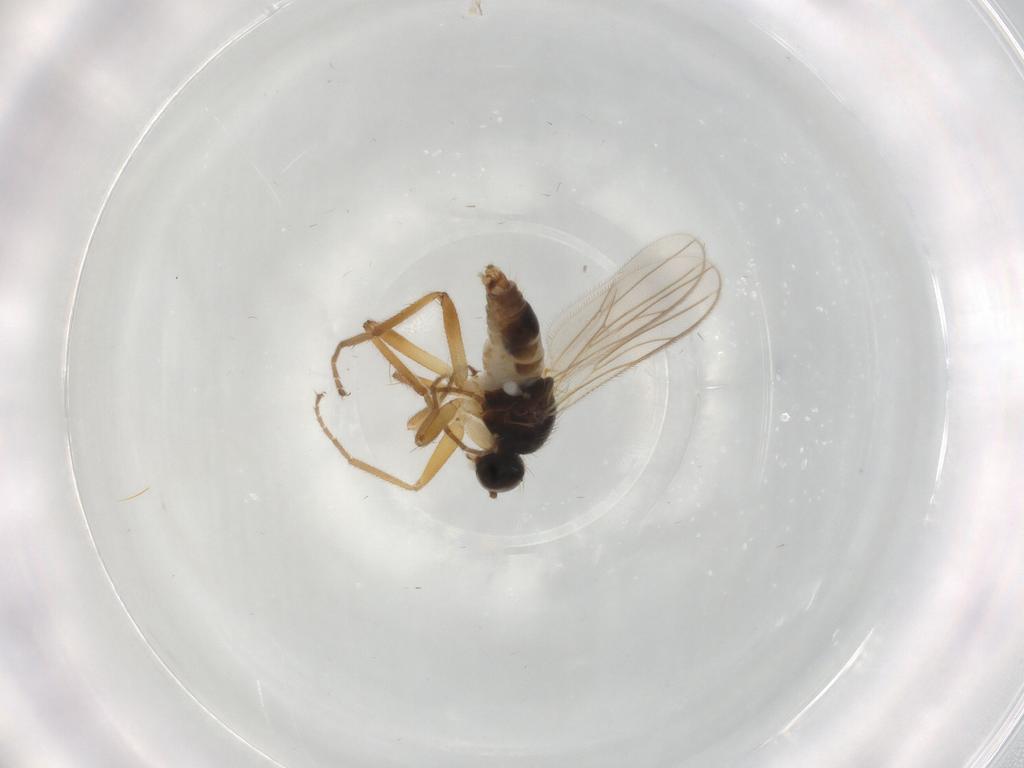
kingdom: Animalia
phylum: Arthropoda
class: Insecta
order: Diptera
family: Hybotidae
